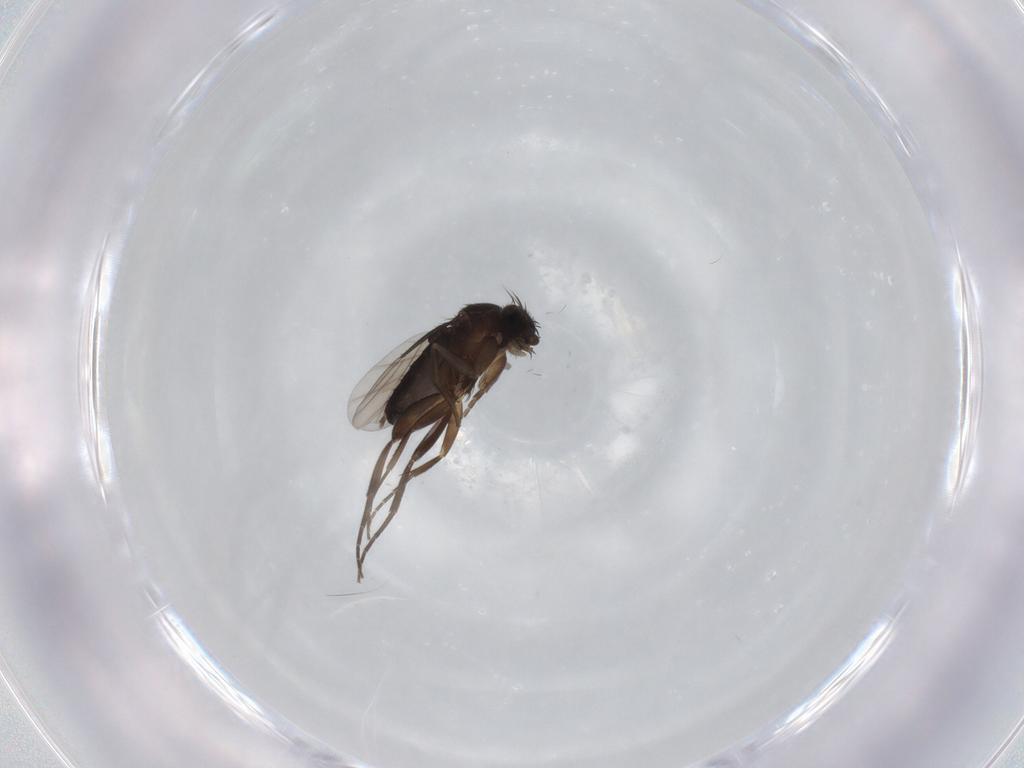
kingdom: Animalia
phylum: Arthropoda
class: Insecta
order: Diptera
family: Phoridae
